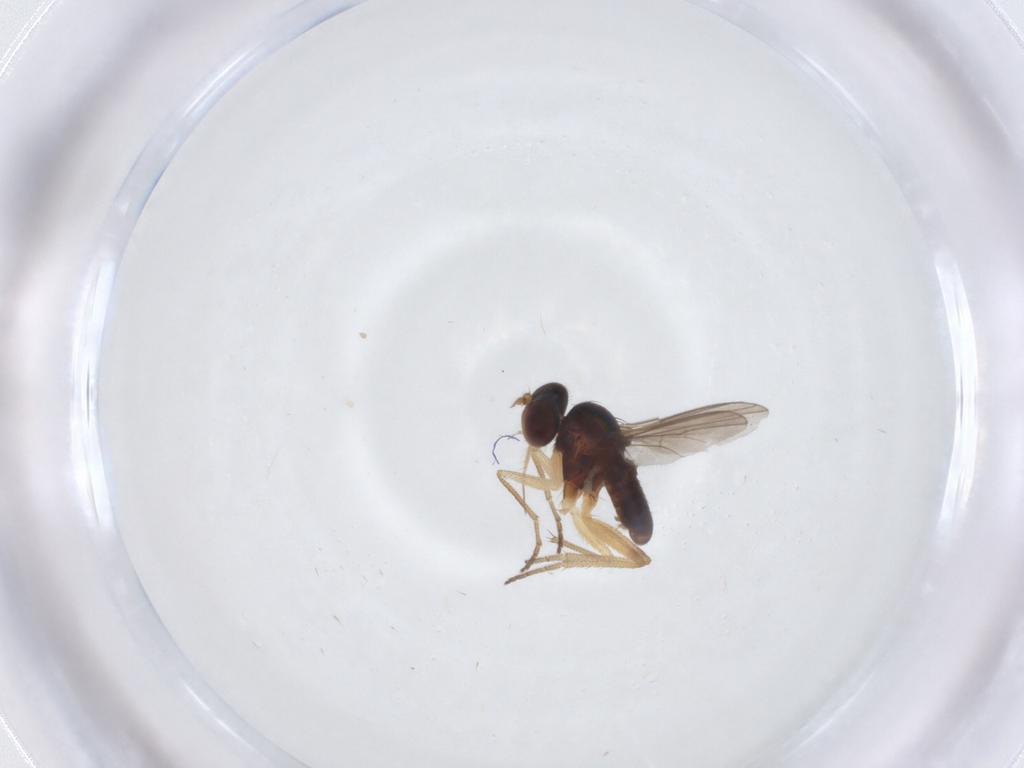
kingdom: Animalia
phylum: Arthropoda
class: Insecta
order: Diptera
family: Dolichopodidae
